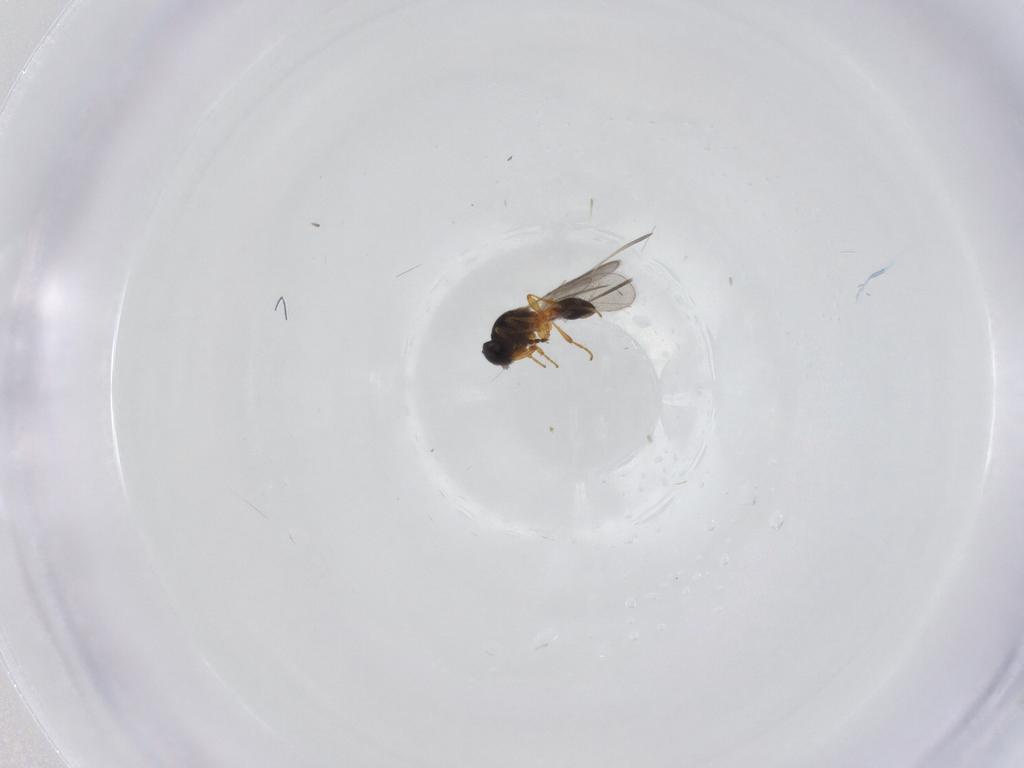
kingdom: Animalia
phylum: Arthropoda
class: Insecta
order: Hymenoptera
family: Platygastridae
